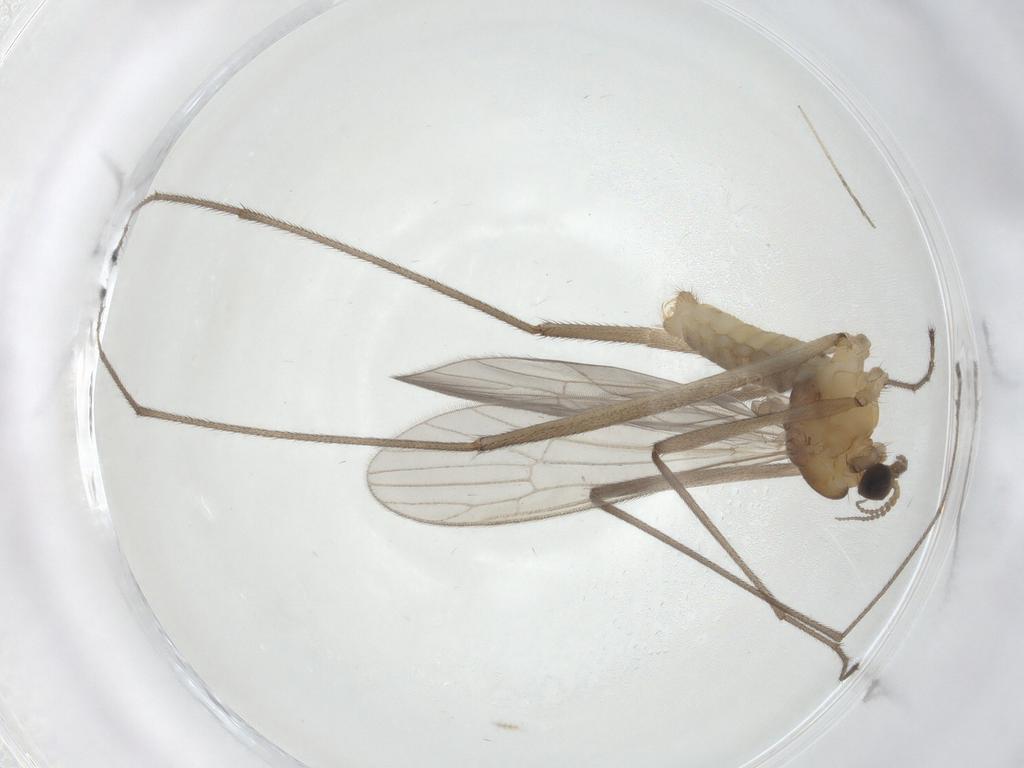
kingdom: Animalia
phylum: Arthropoda
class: Insecta
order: Diptera
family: Limoniidae
